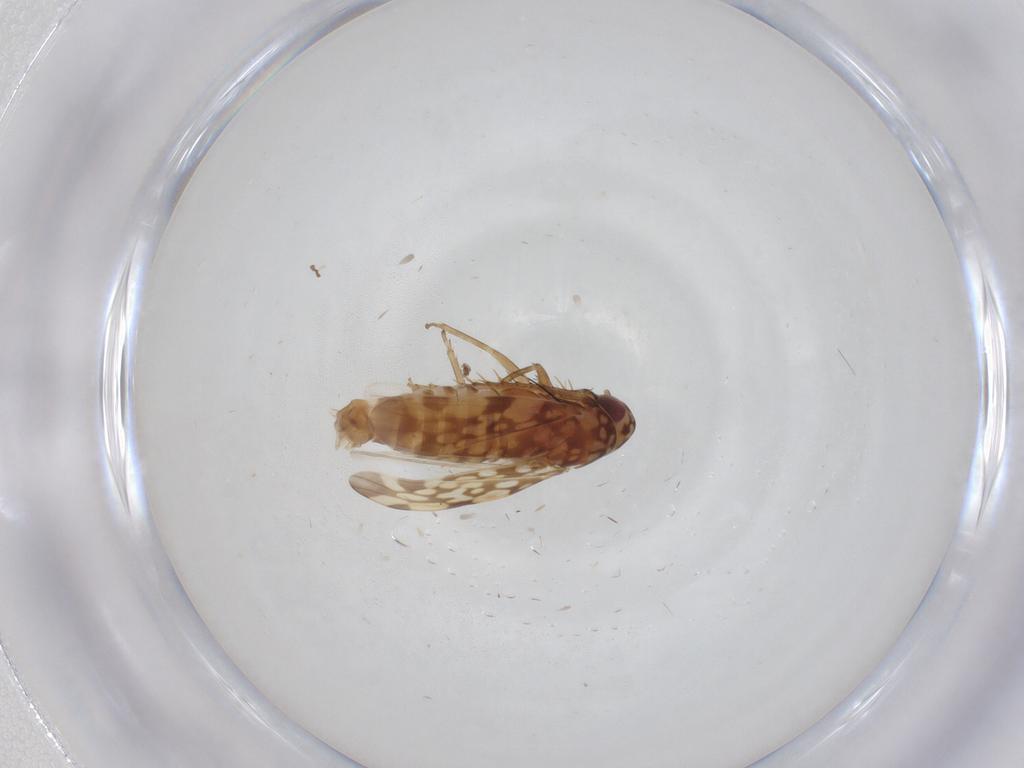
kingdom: Animalia
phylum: Arthropoda
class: Insecta
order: Hemiptera
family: Cicadellidae
